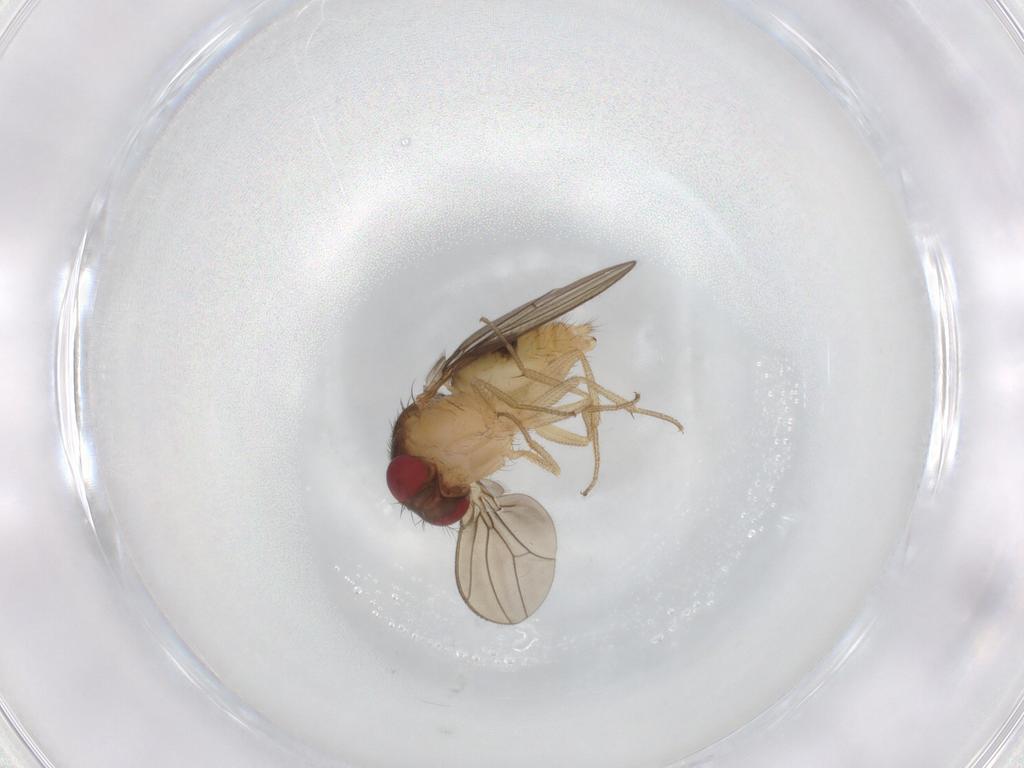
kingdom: Animalia
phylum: Arthropoda
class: Insecta
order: Diptera
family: Drosophilidae
